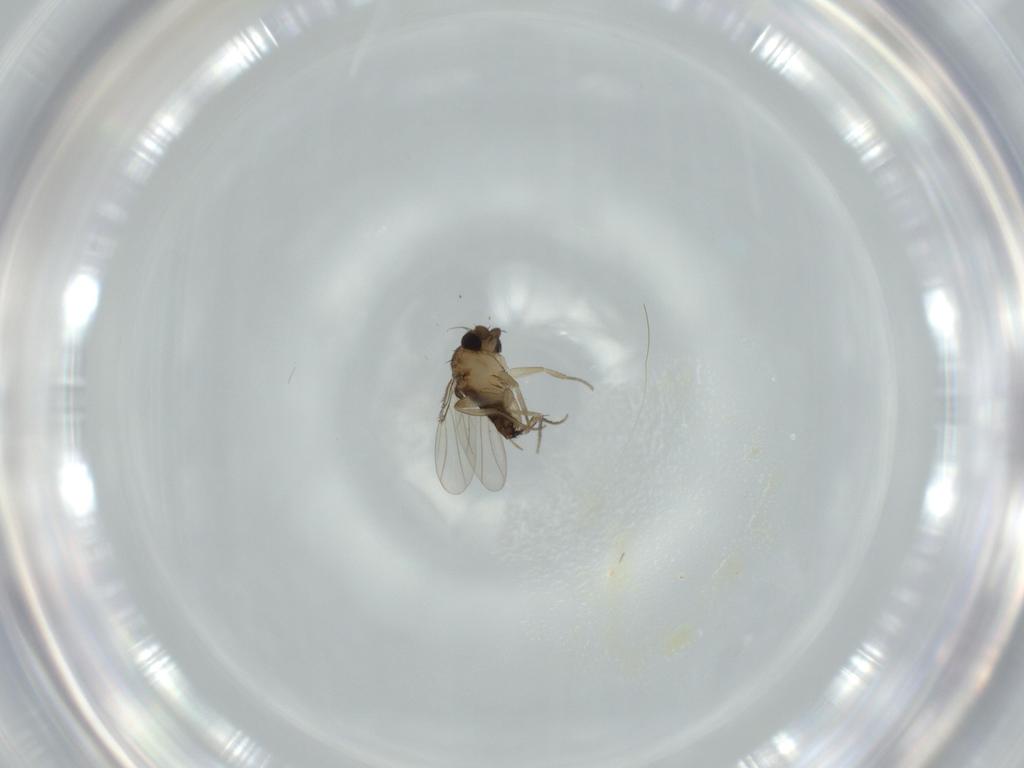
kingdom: Animalia
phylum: Arthropoda
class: Insecta
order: Diptera
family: Phoridae
